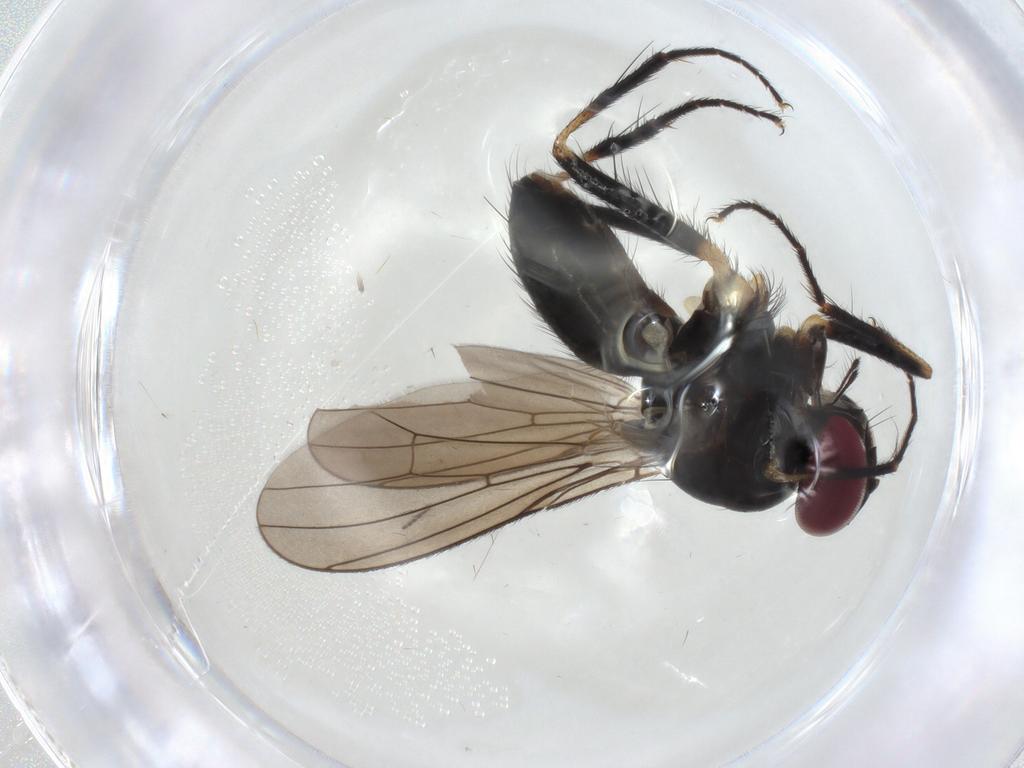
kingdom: Animalia
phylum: Arthropoda
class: Insecta
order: Diptera
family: Anthomyiidae
